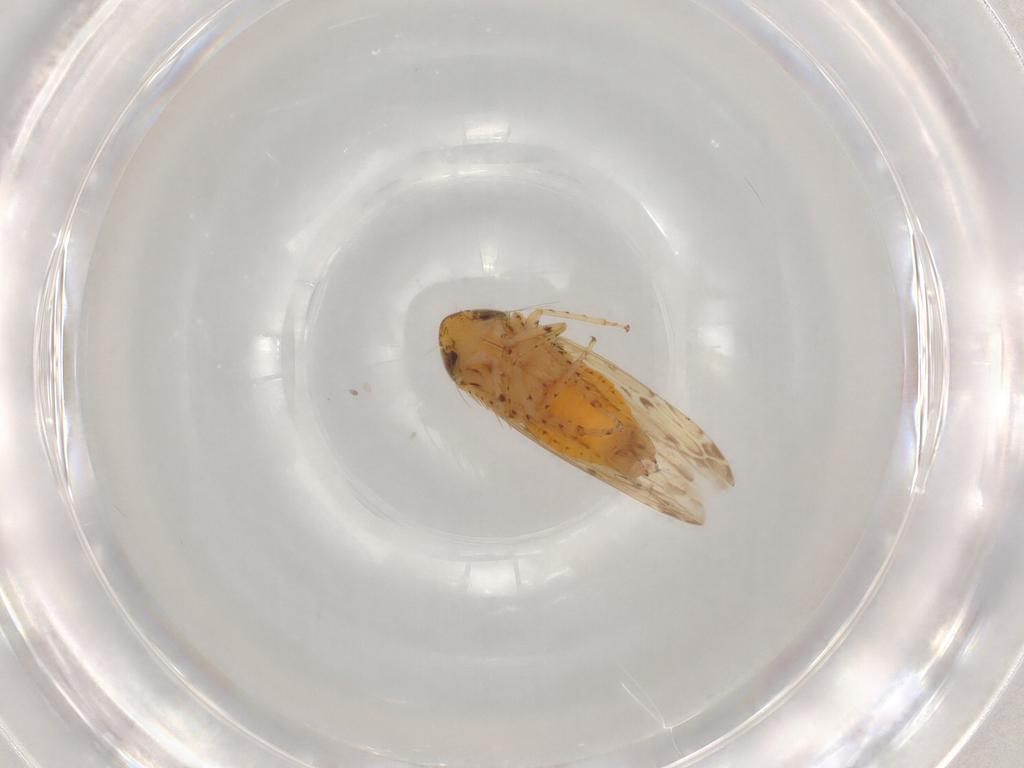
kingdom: Animalia
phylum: Arthropoda
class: Insecta
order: Hemiptera
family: Cicadellidae
